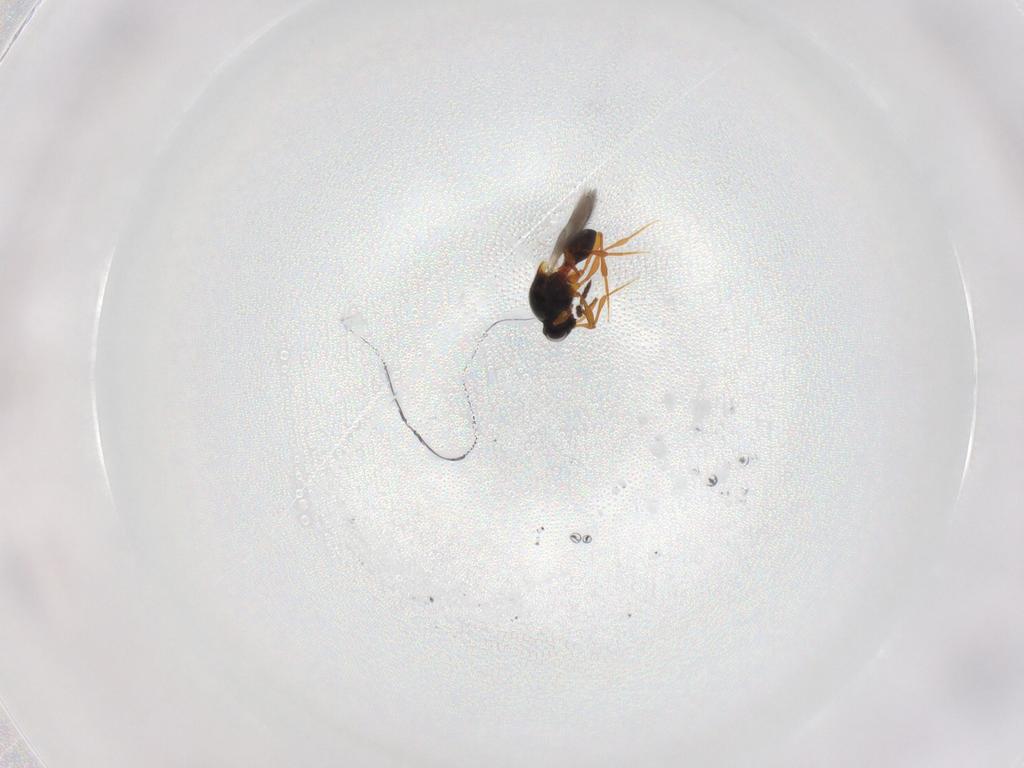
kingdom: Animalia
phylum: Arthropoda
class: Insecta
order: Hymenoptera
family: Platygastridae
